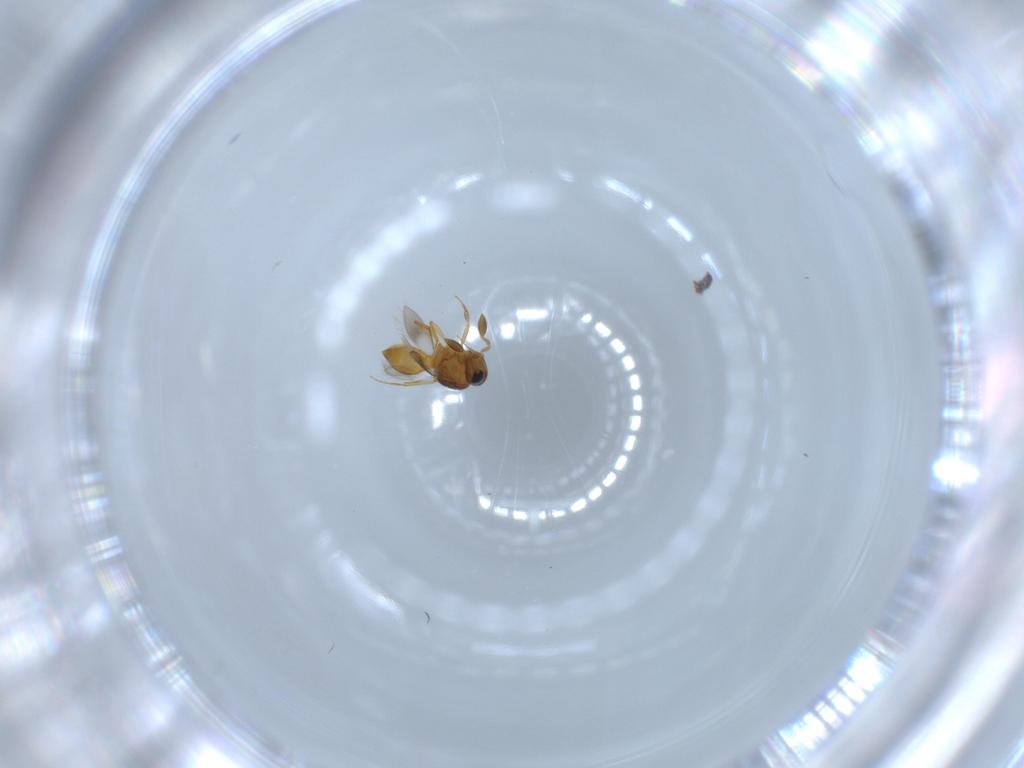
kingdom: Animalia
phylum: Arthropoda
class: Insecta
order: Hymenoptera
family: Scelionidae
